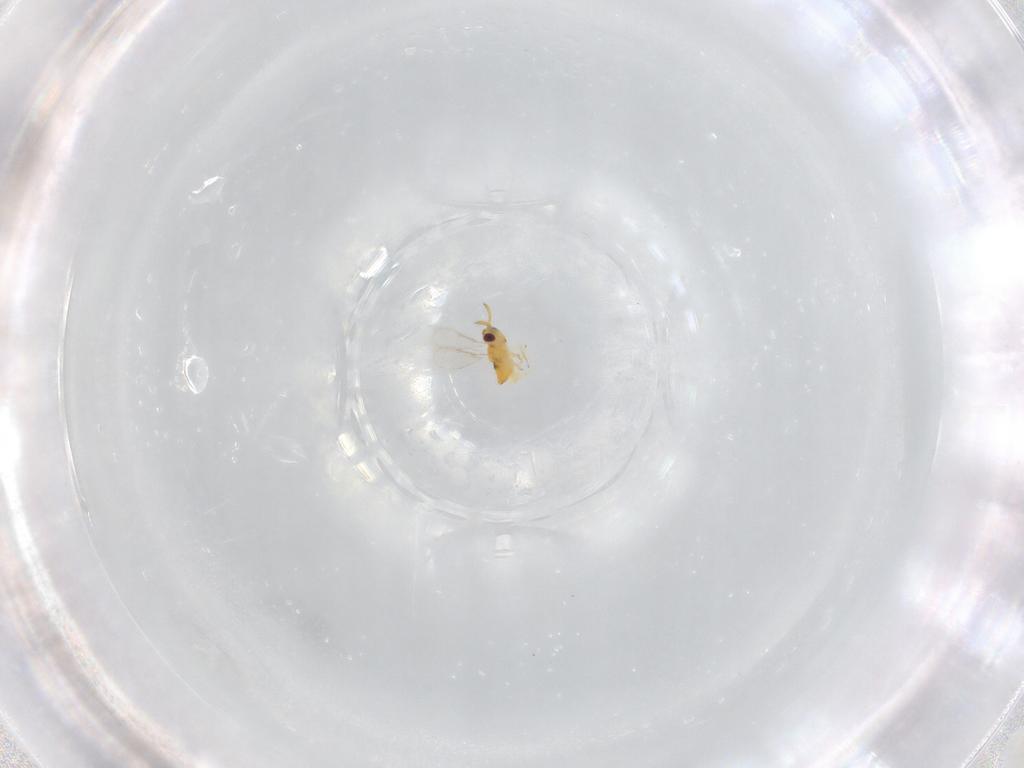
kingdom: Animalia
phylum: Arthropoda
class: Insecta
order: Hymenoptera
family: Aphelinidae
